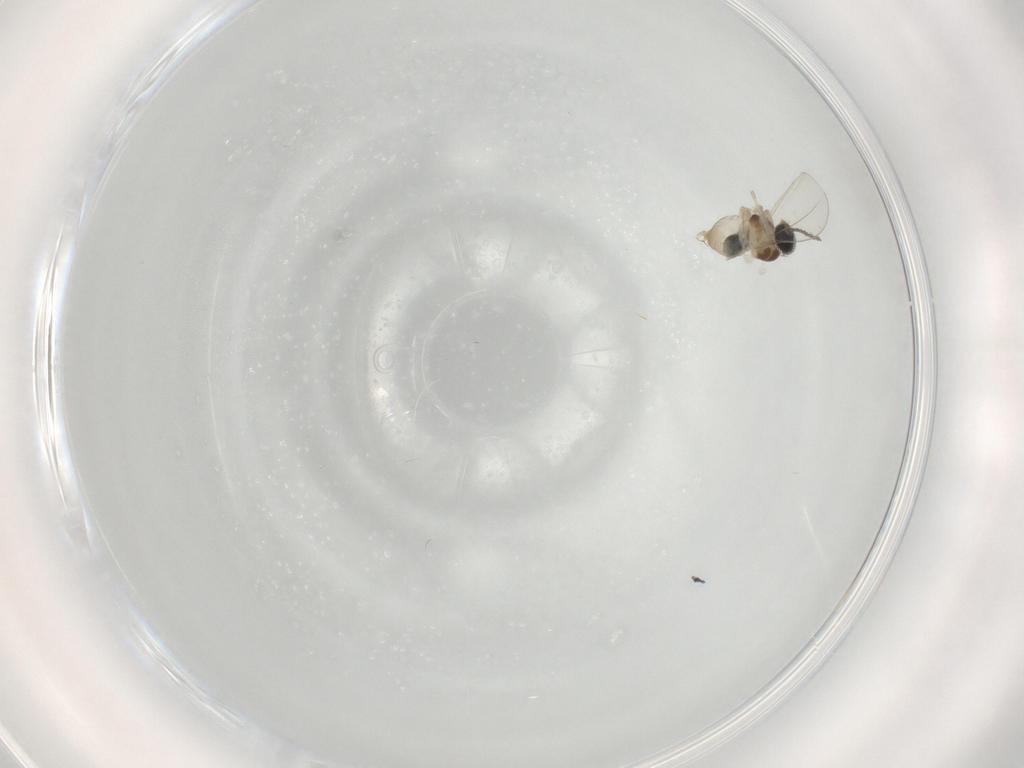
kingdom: Animalia
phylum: Arthropoda
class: Insecta
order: Diptera
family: Cecidomyiidae
